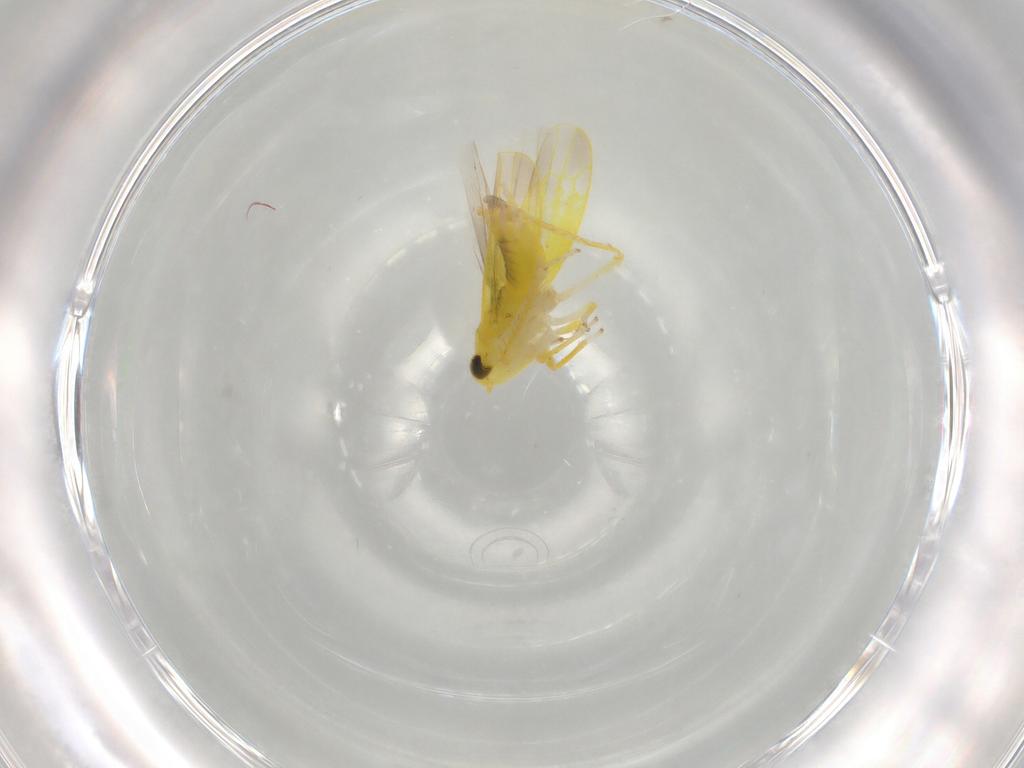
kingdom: Animalia
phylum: Arthropoda
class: Insecta
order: Hemiptera
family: Cicadellidae
